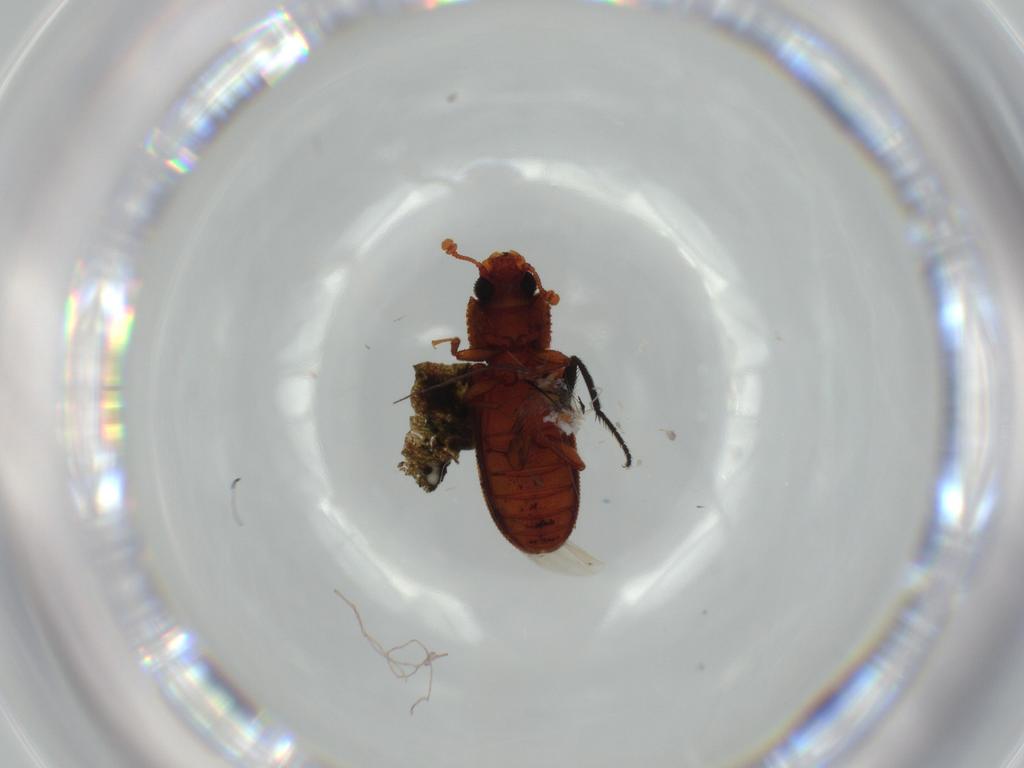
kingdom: Animalia
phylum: Arthropoda
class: Insecta
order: Coleoptera
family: Zopheridae
